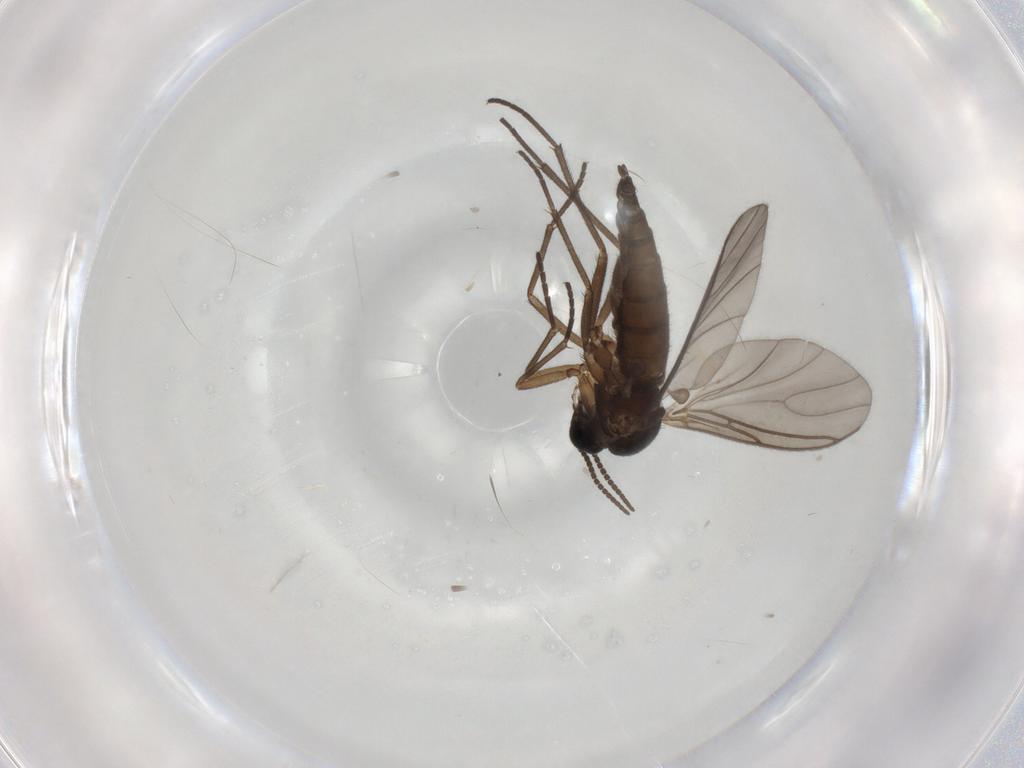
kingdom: Animalia
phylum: Arthropoda
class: Insecta
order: Diptera
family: Sciaridae
